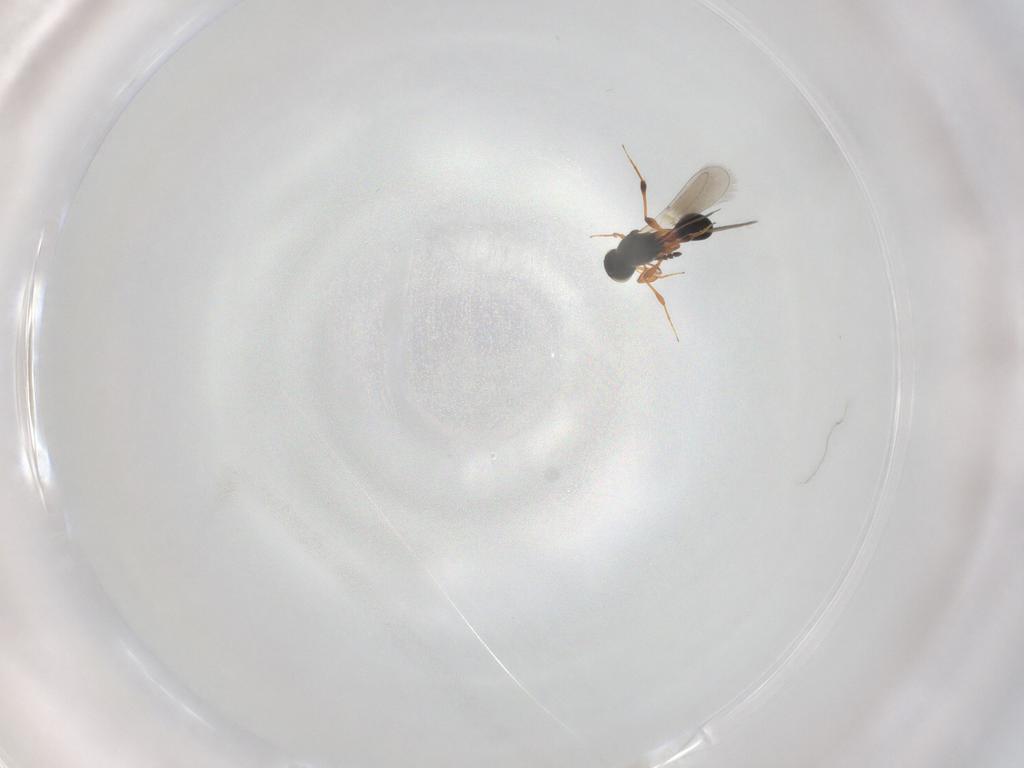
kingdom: Animalia
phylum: Arthropoda
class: Insecta
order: Hymenoptera
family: Platygastridae
